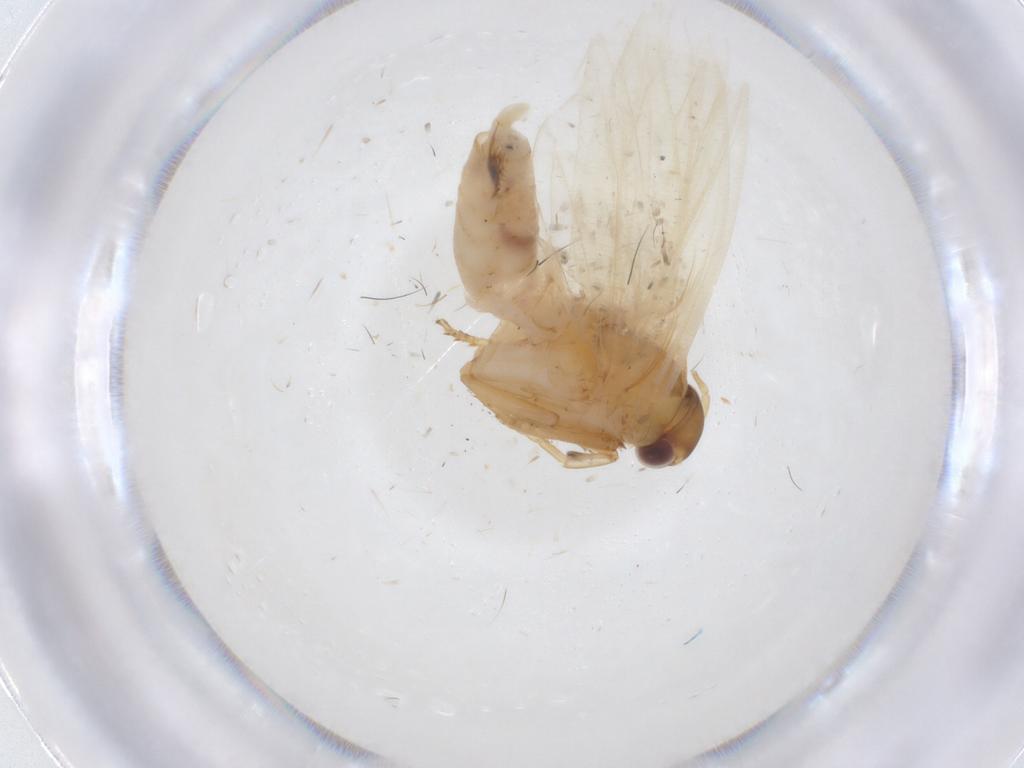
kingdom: Animalia
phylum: Arthropoda
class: Insecta
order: Lepidoptera
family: Gelechiidae
